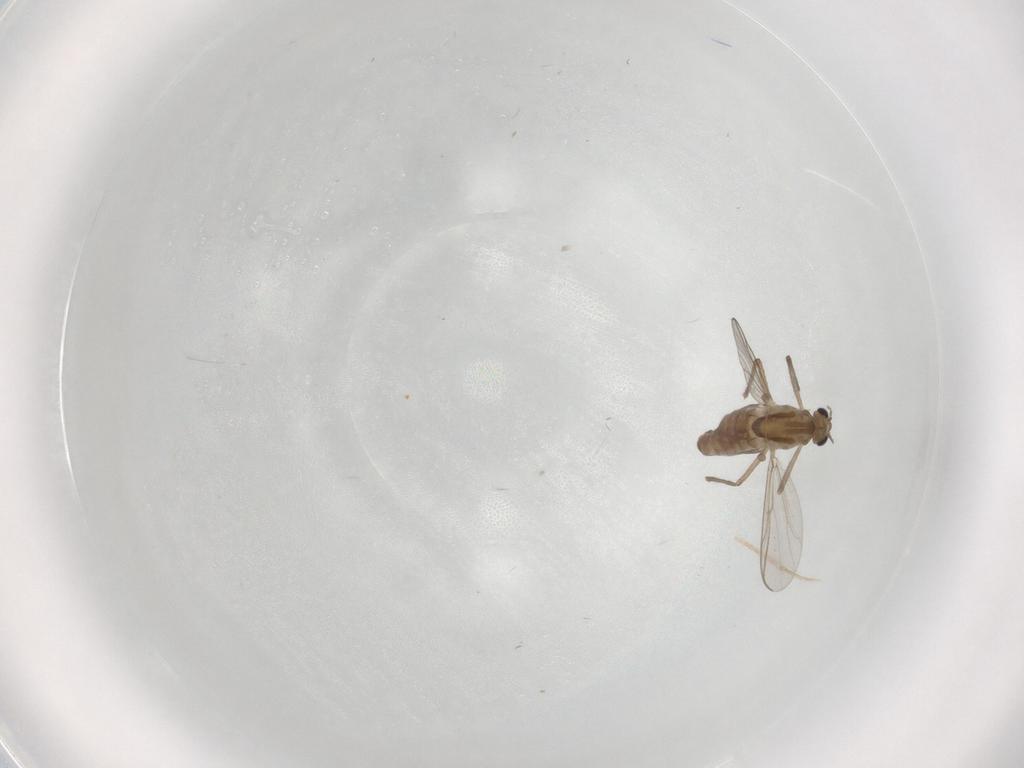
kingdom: Animalia
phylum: Arthropoda
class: Insecta
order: Diptera
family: Chironomidae
